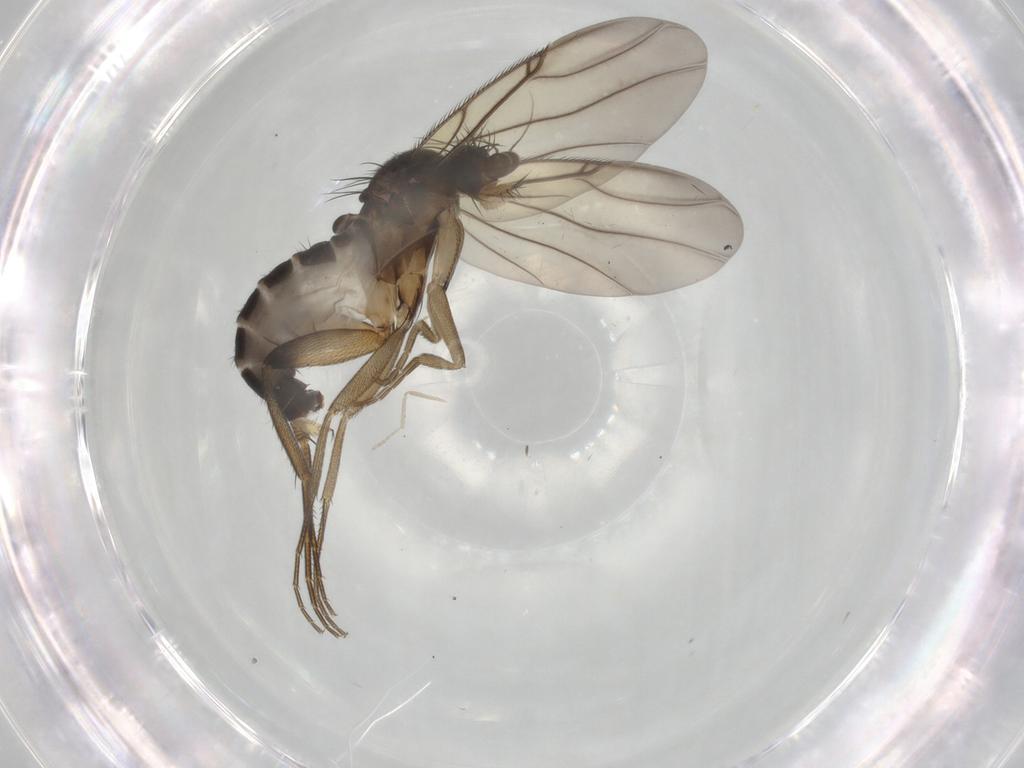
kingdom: Animalia
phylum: Arthropoda
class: Insecta
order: Diptera
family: Phoridae
